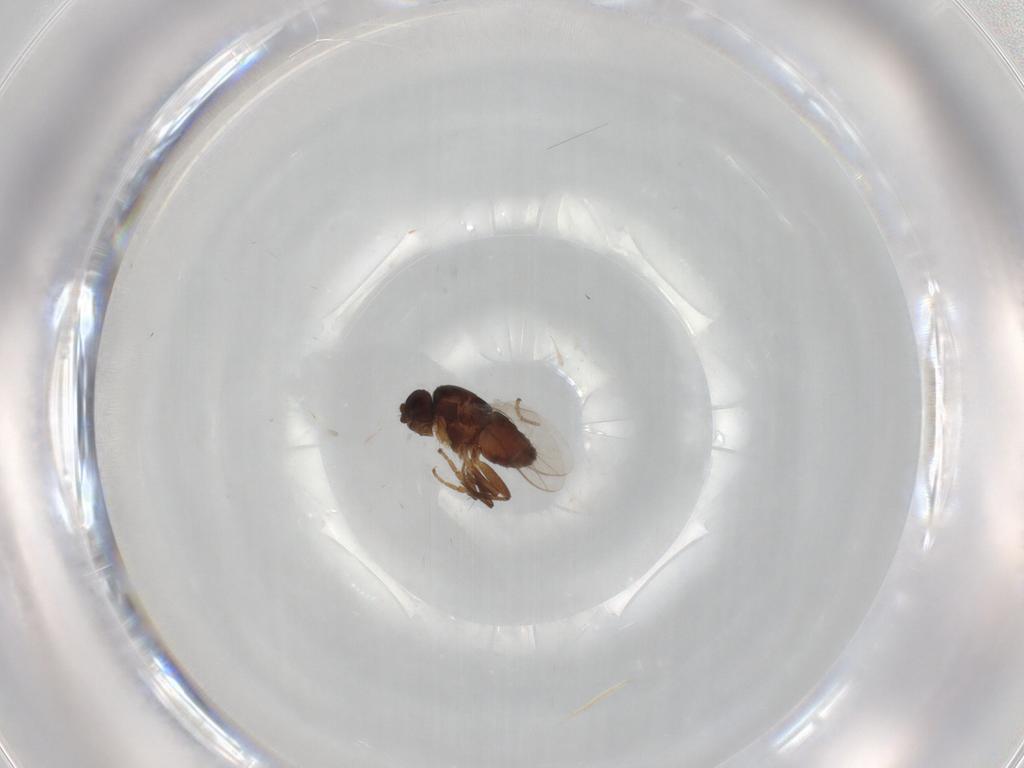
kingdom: Animalia
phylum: Arthropoda
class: Insecta
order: Diptera
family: Sphaeroceridae
